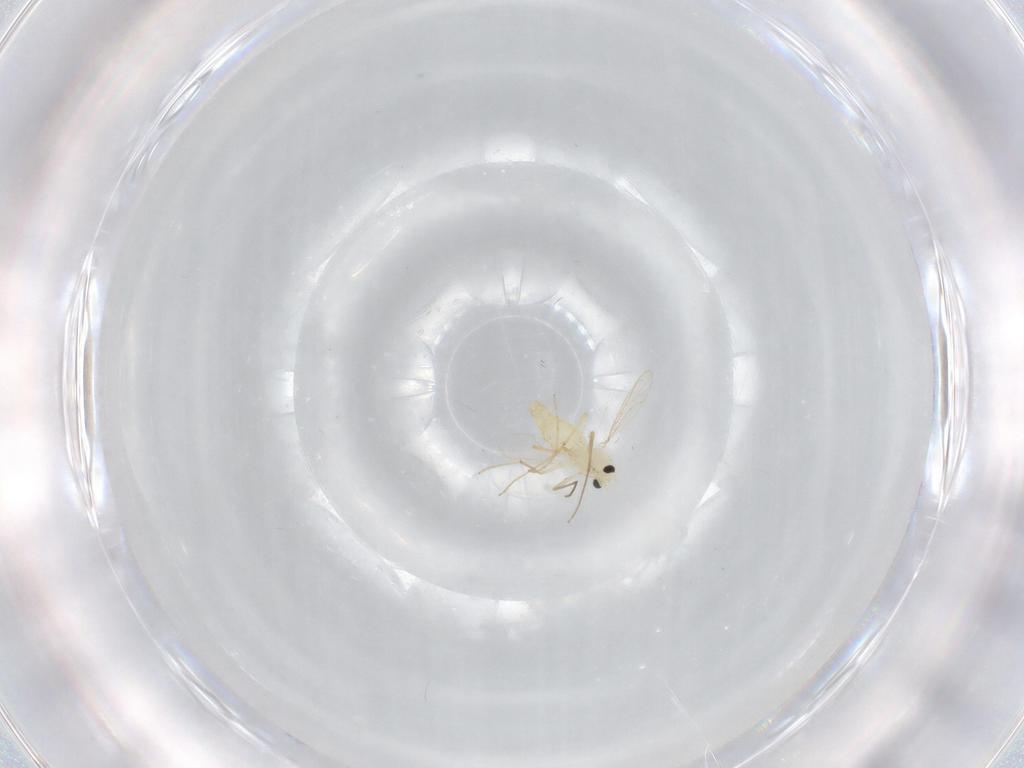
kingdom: Animalia
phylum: Arthropoda
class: Insecta
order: Diptera
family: Chironomidae
